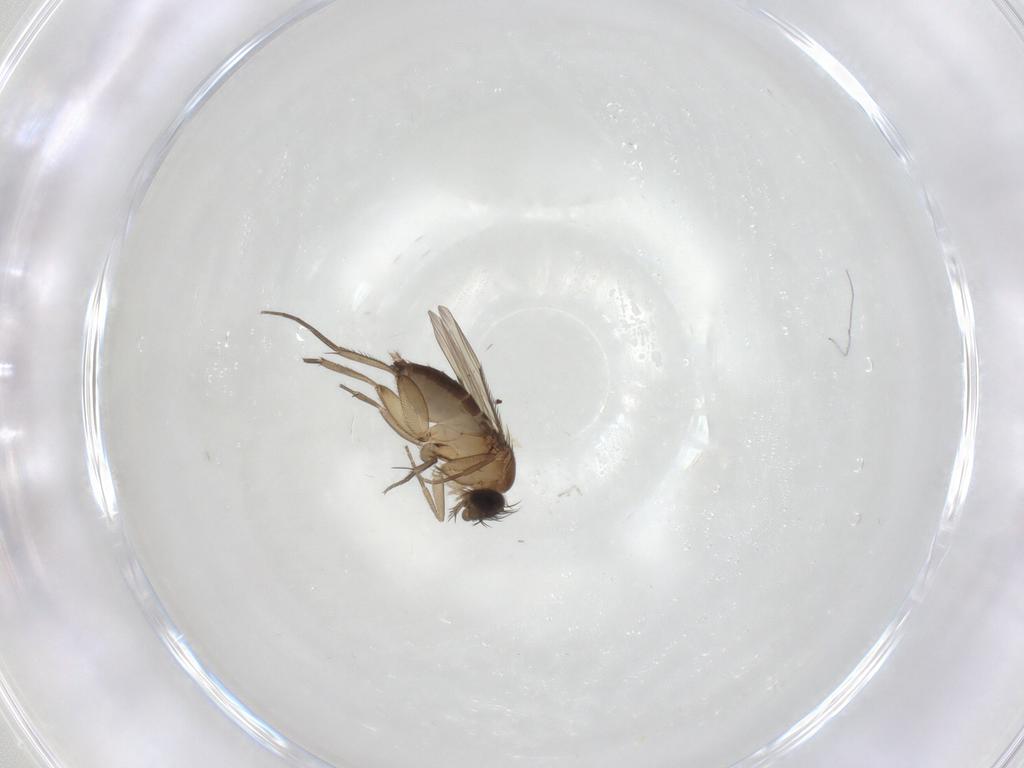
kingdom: Animalia
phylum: Arthropoda
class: Insecta
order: Diptera
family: Phoridae
